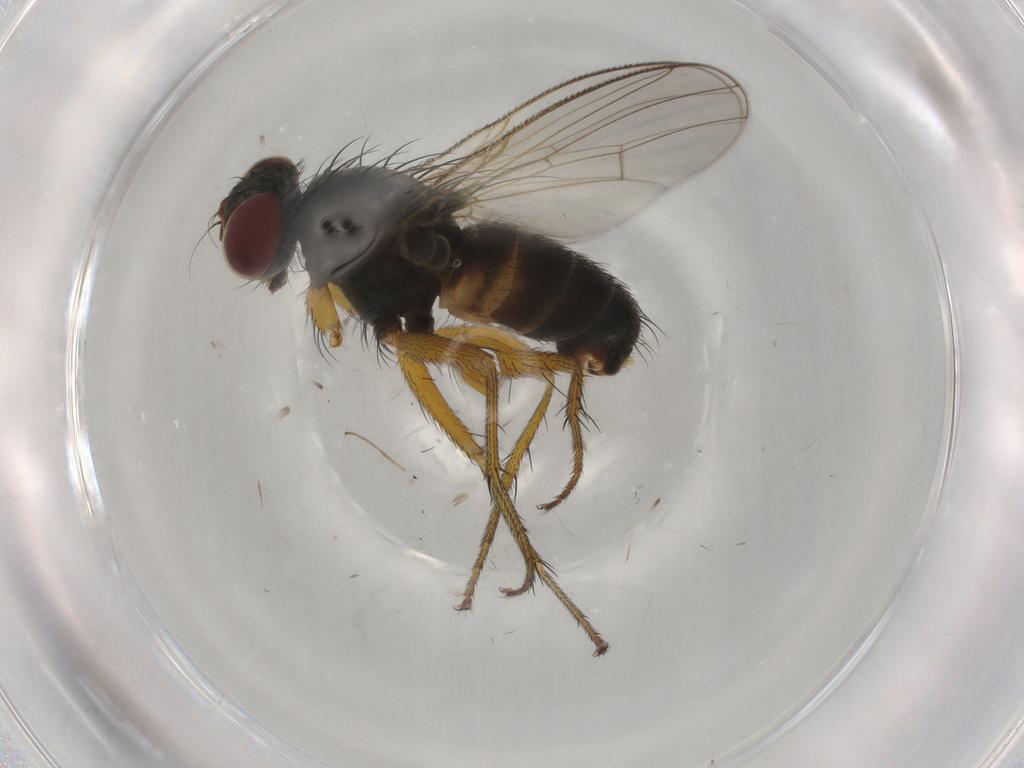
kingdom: Animalia
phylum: Arthropoda
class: Insecta
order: Diptera
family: Muscidae
